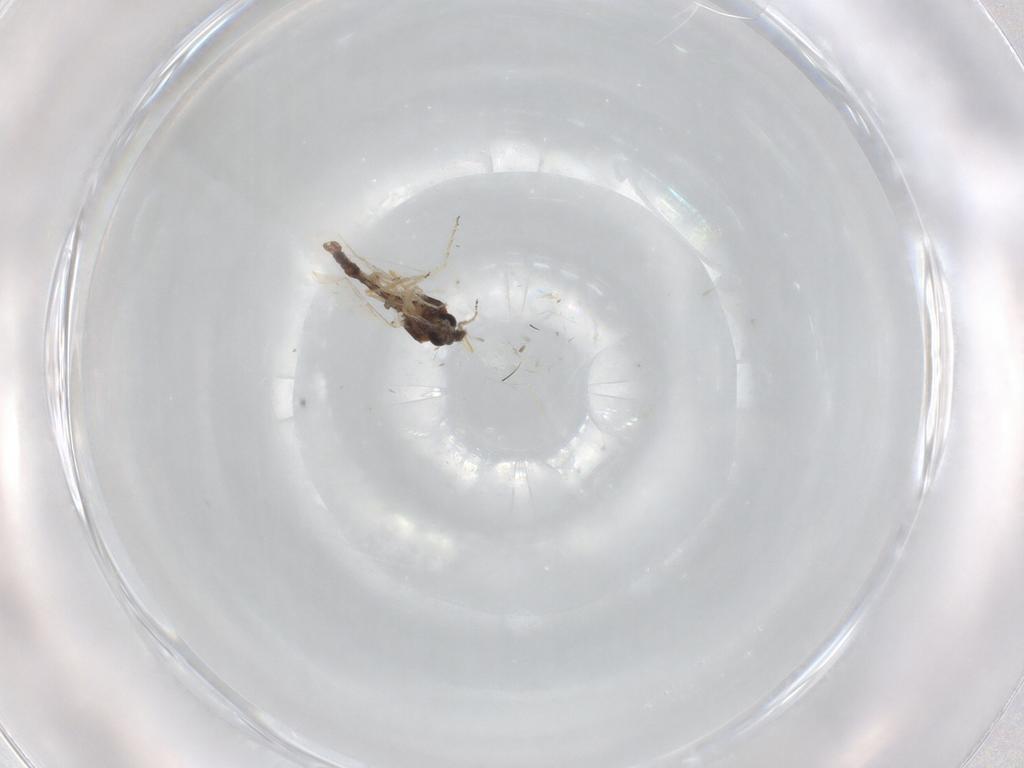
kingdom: Animalia
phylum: Arthropoda
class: Insecta
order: Diptera
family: Ceratopogonidae
